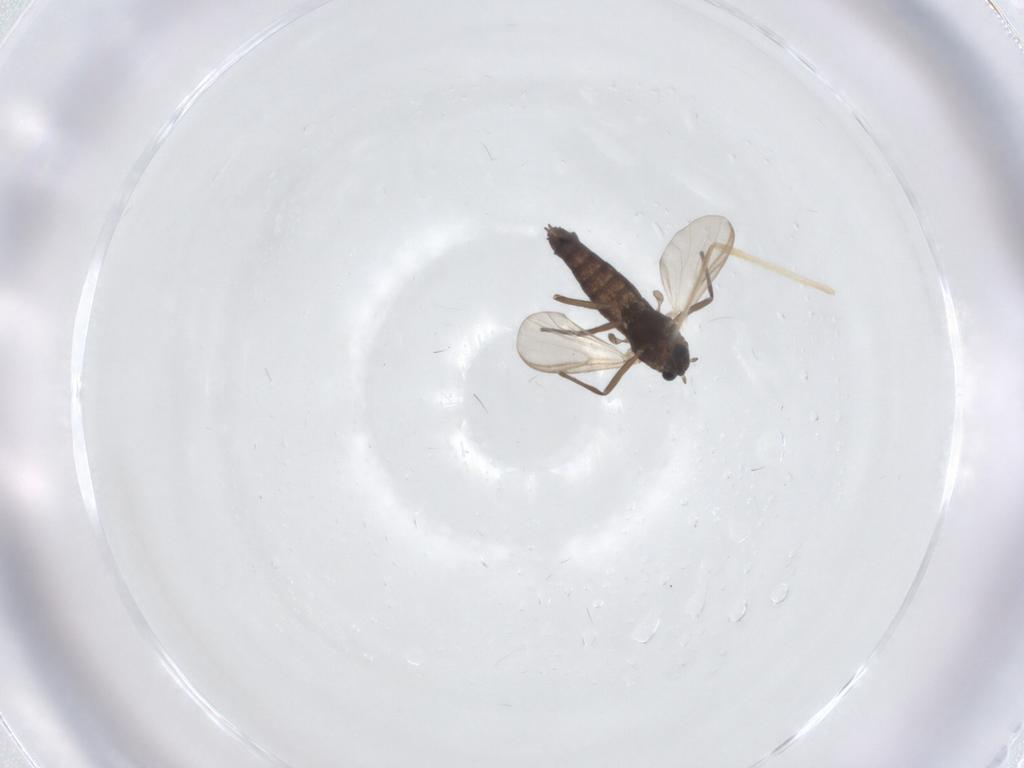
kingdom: Animalia
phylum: Arthropoda
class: Insecta
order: Diptera
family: Chironomidae
